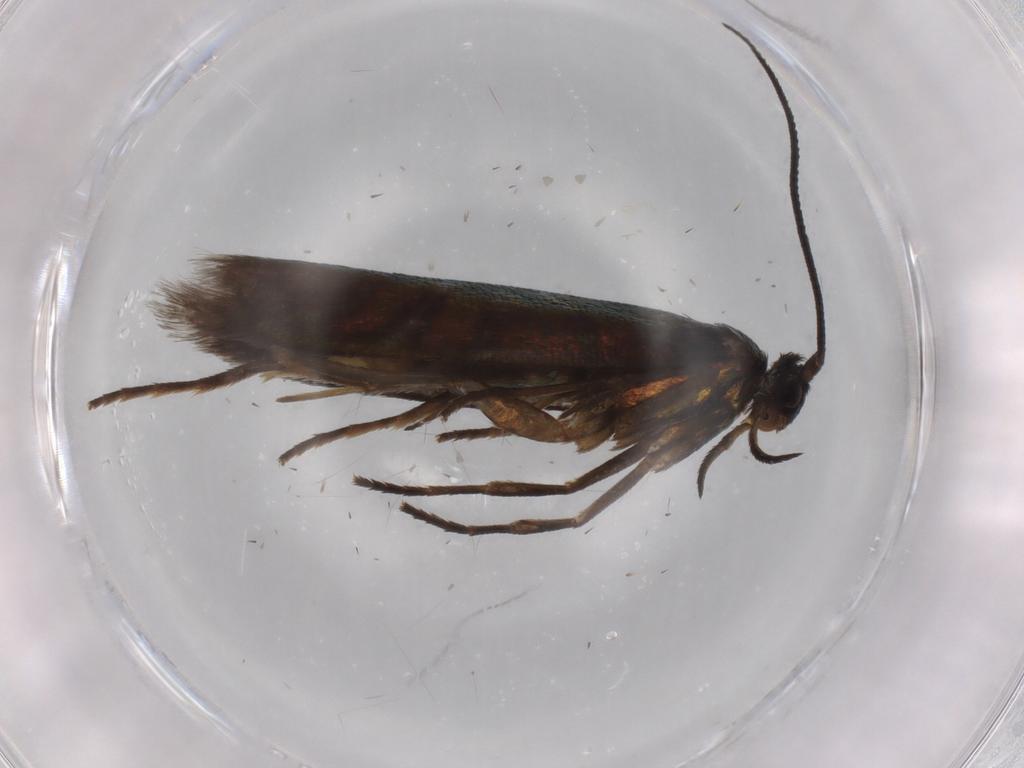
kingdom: Animalia
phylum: Arthropoda
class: Insecta
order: Lepidoptera
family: Argyresthiidae
